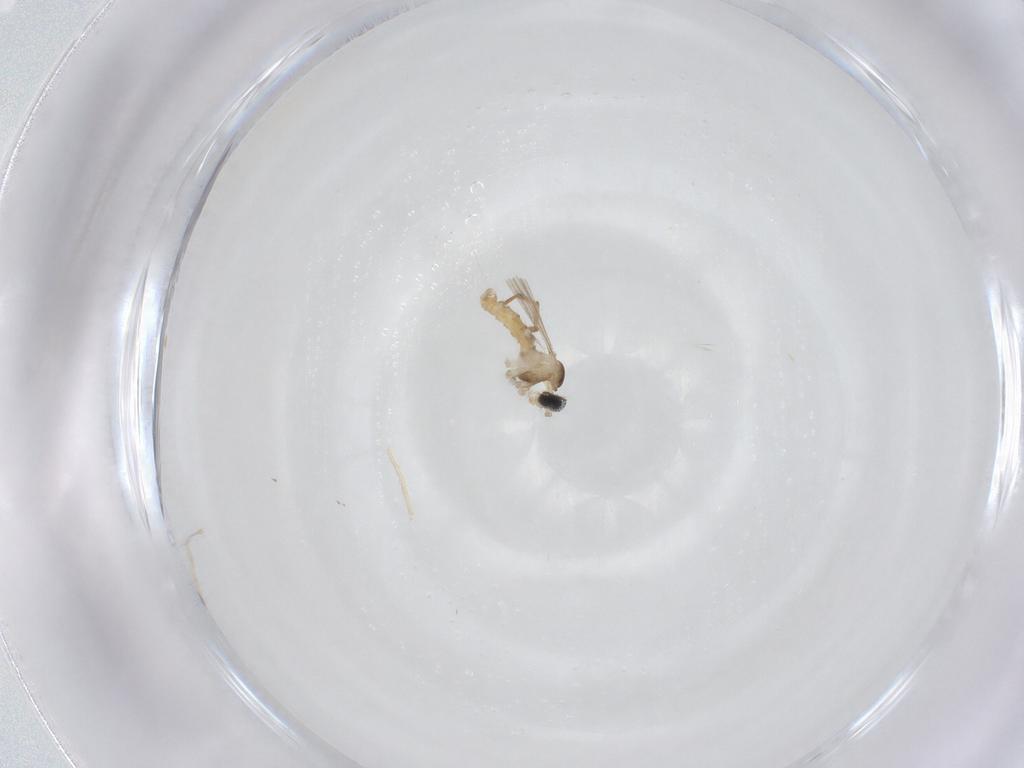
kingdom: Animalia
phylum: Arthropoda
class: Insecta
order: Diptera
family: Cecidomyiidae
